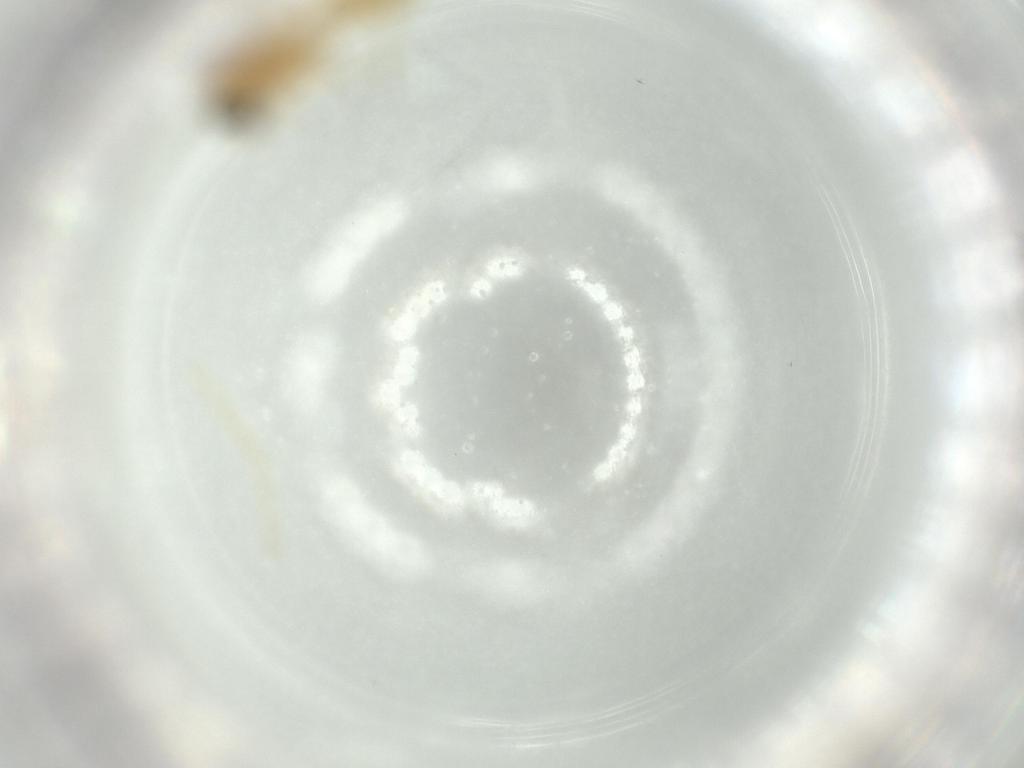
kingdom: Animalia
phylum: Arthropoda
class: Insecta
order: Diptera
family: Chironomidae
